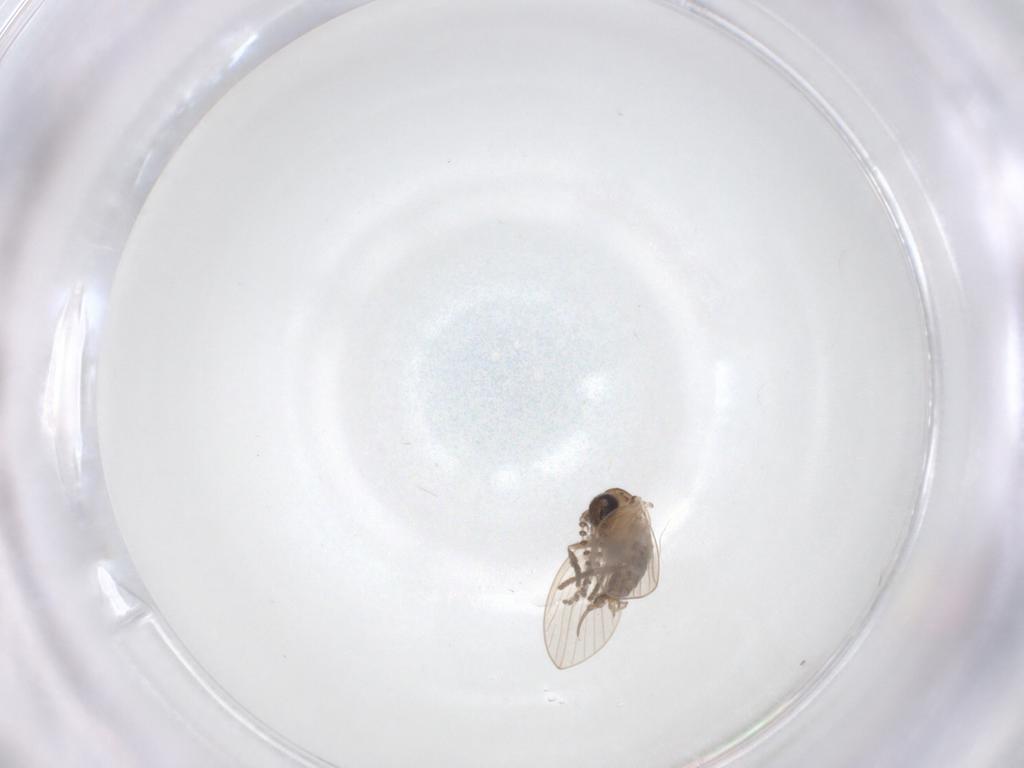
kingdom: Animalia
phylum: Arthropoda
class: Insecta
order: Diptera
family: Psychodidae
